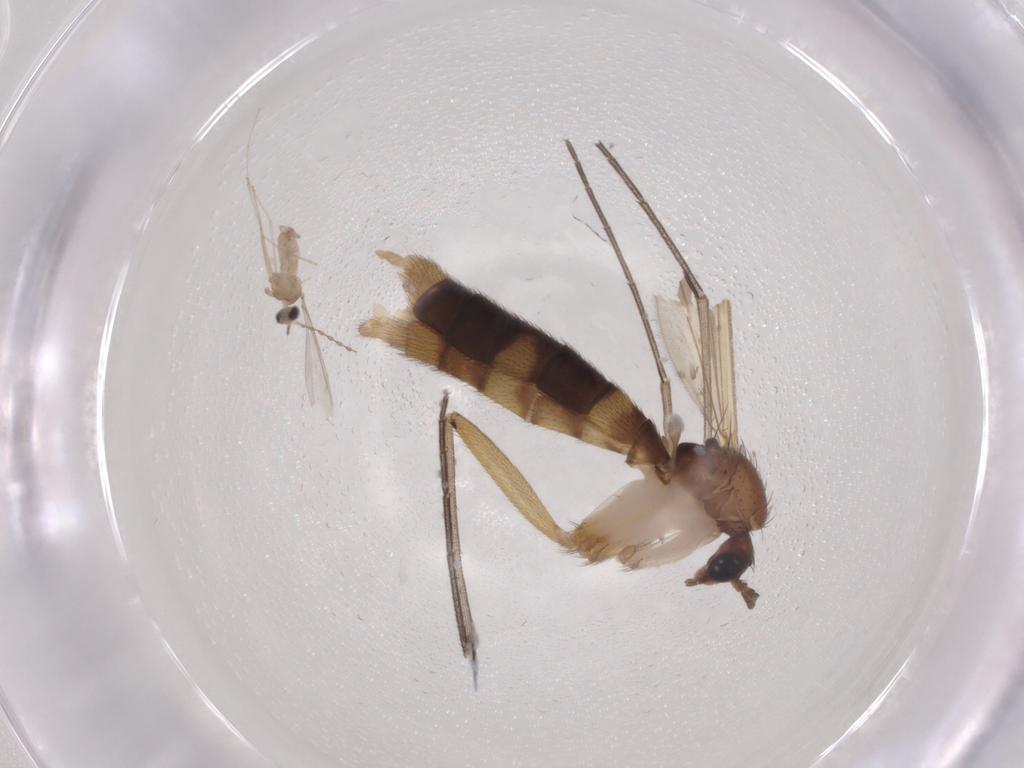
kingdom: Animalia
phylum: Arthropoda
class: Insecta
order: Diptera
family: Mycetophilidae
